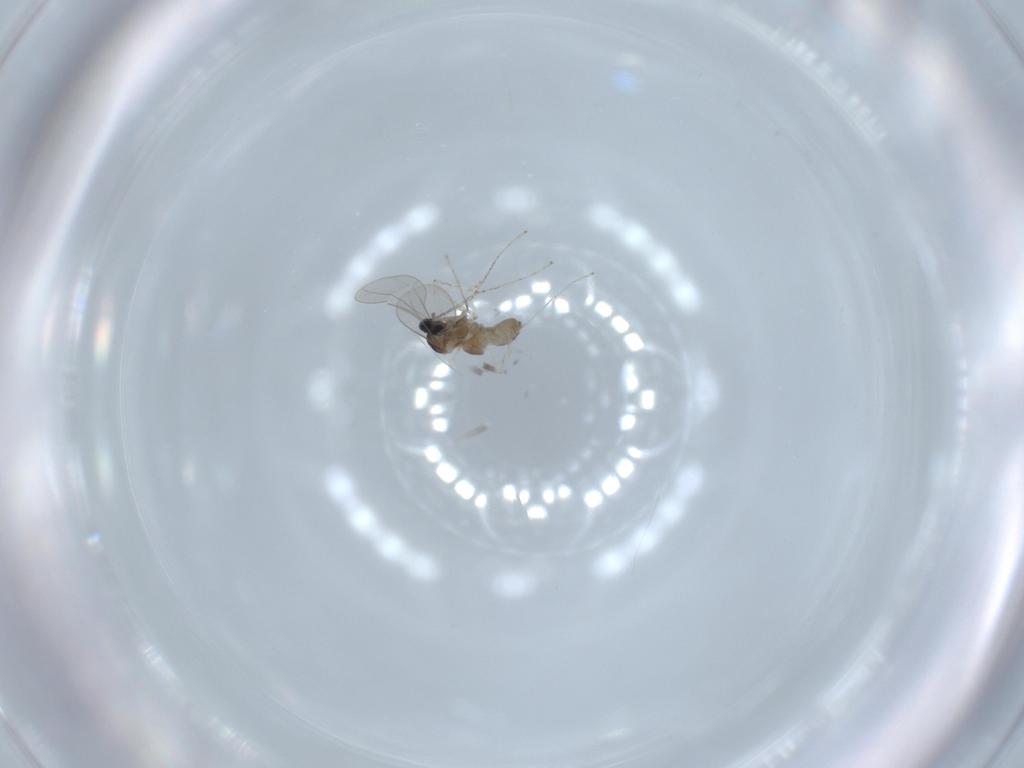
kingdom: Animalia
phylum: Arthropoda
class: Insecta
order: Diptera
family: Cecidomyiidae
